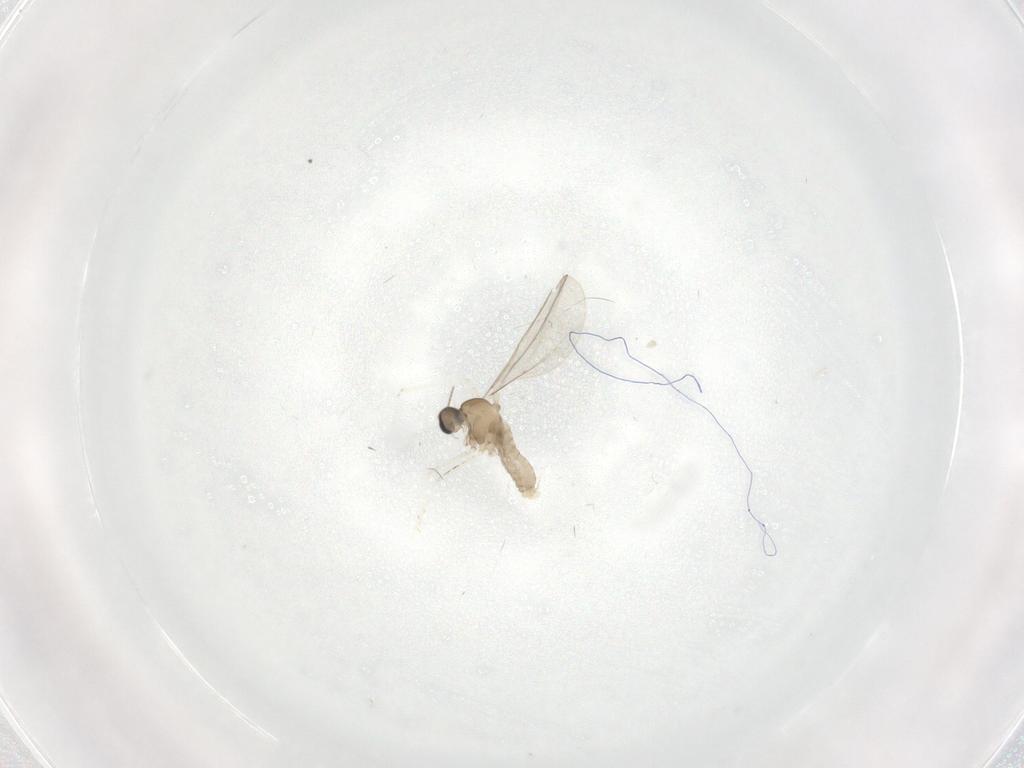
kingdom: Animalia
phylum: Arthropoda
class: Insecta
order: Diptera
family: Ceratopogonidae
